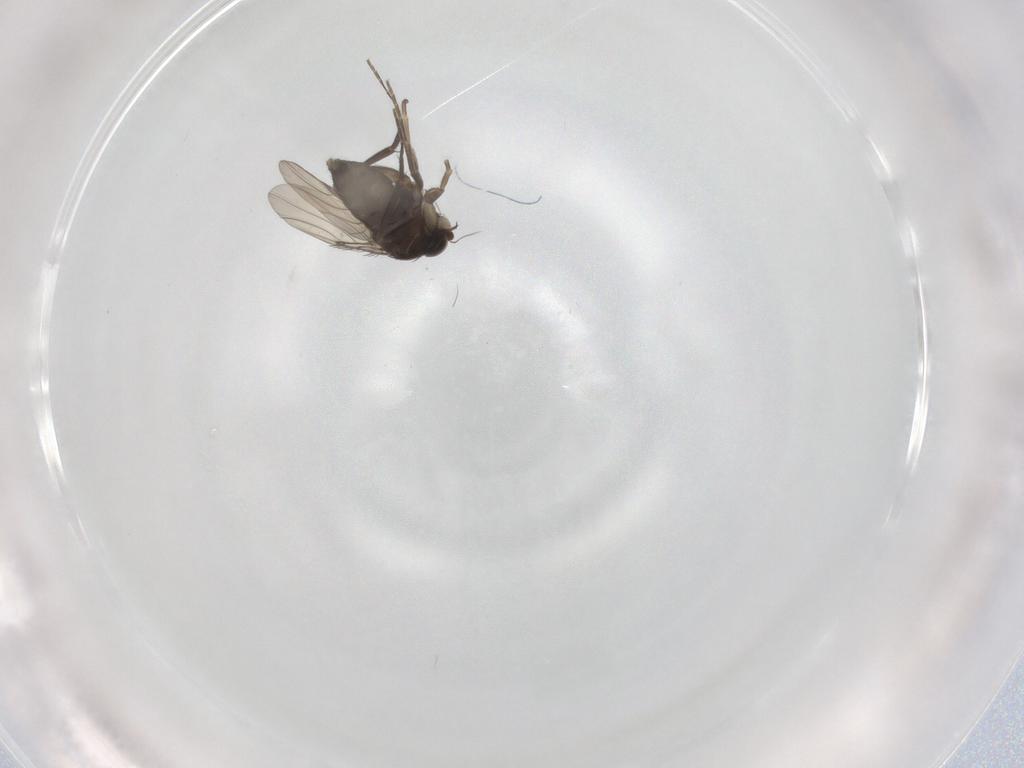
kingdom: Animalia
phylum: Arthropoda
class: Insecta
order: Diptera
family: Phoridae
